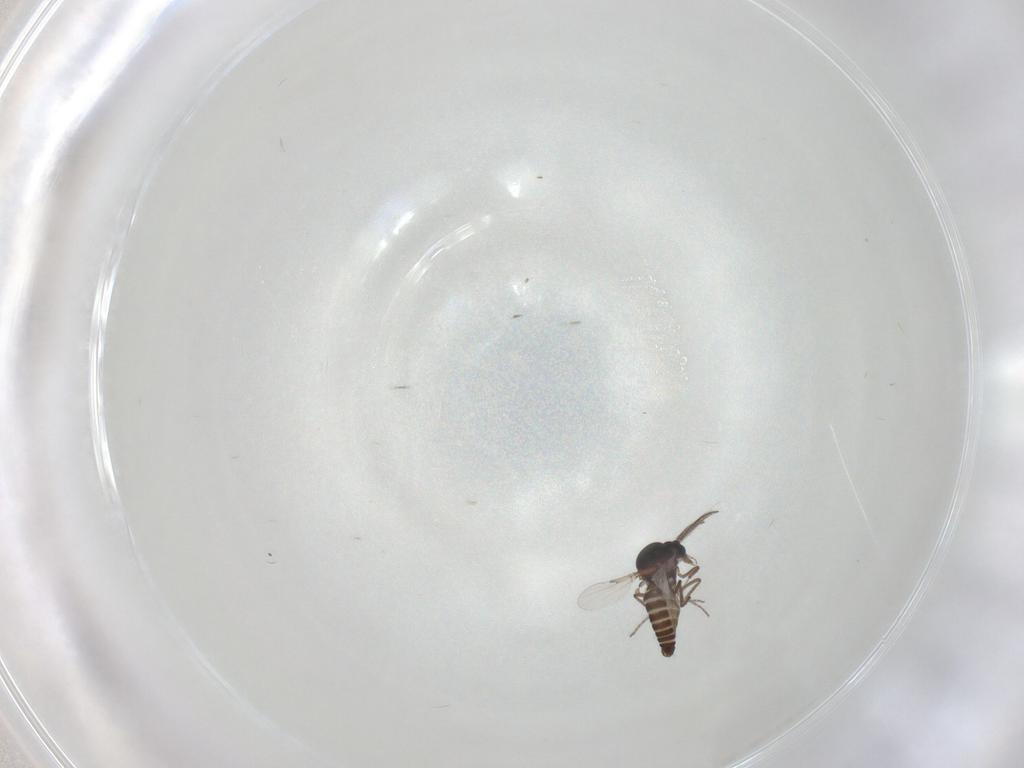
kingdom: Animalia
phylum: Arthropoda
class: Insecta
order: Diptera
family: Ceratopogonidae
